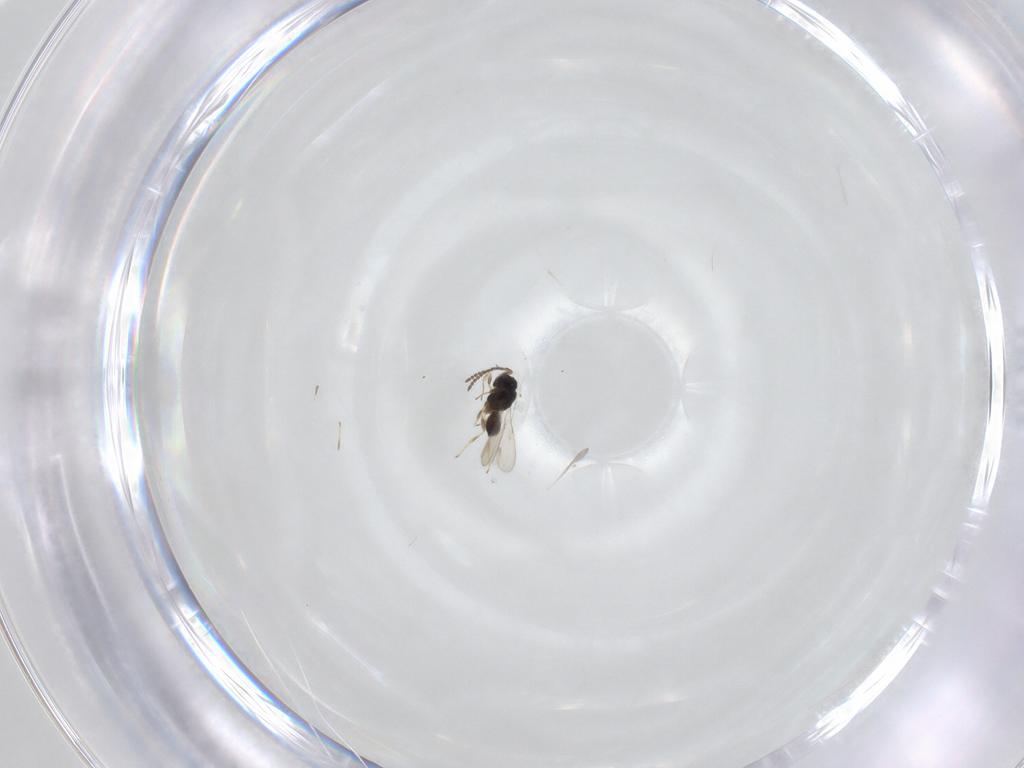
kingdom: Animalia
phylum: Arthropoda
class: Insecta
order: Hymenoptera
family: Scelionidae
